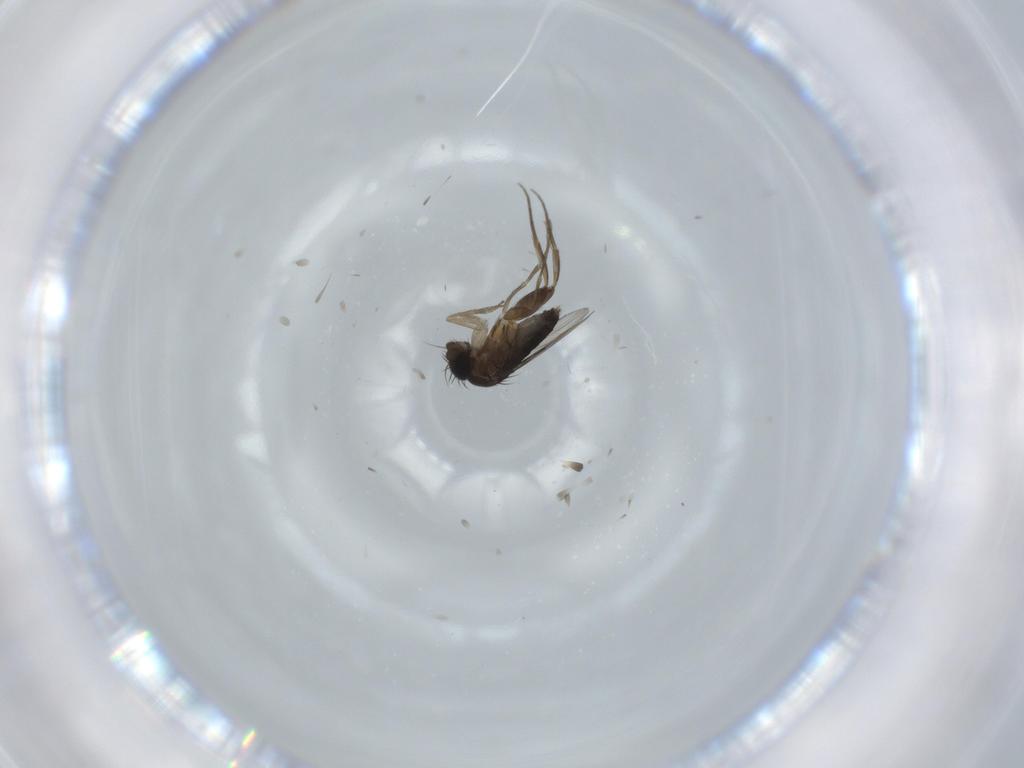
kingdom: Animalia
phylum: Arthropoda
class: Insecta
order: Diptera
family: Phoridae
